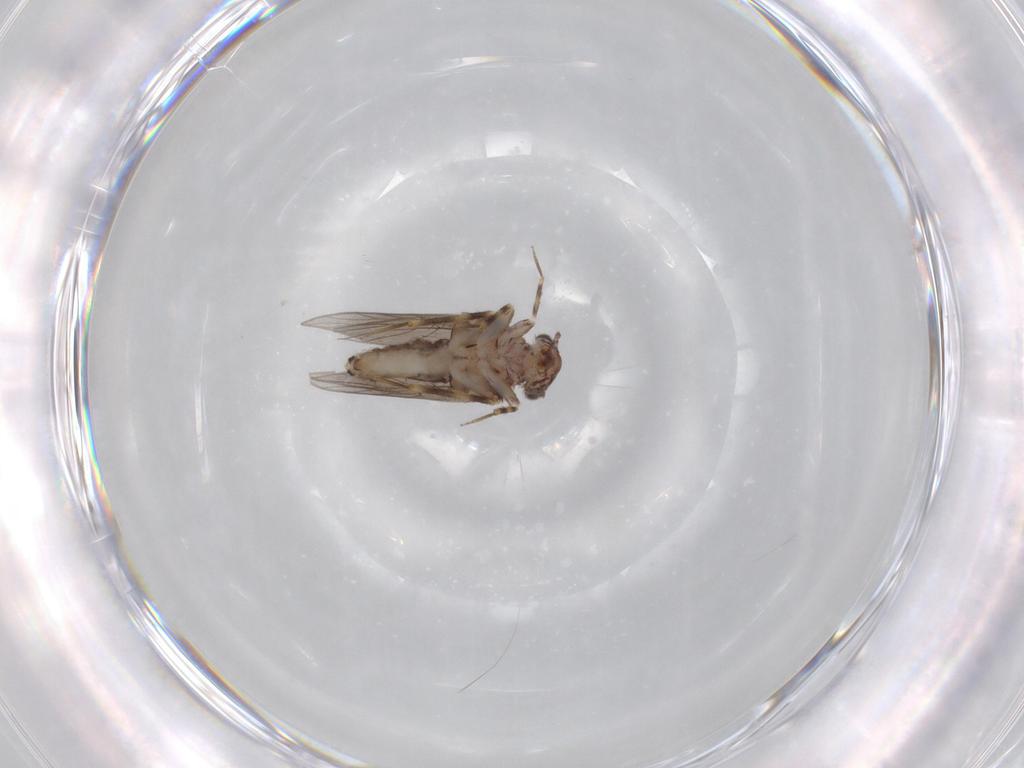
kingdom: Animalia
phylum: Arthropoda
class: Insecta
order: Psocodea
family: Lepidopsocidae
